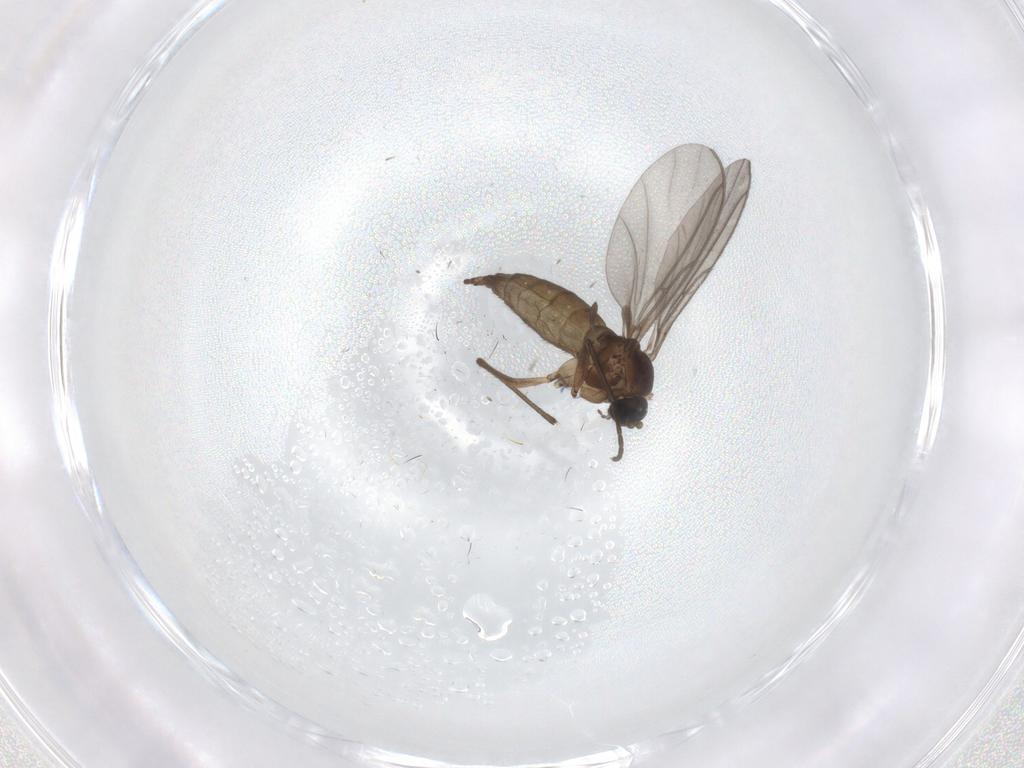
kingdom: Animalia
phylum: Arthropoda
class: Insecta
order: Diptera
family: Sciaridae
